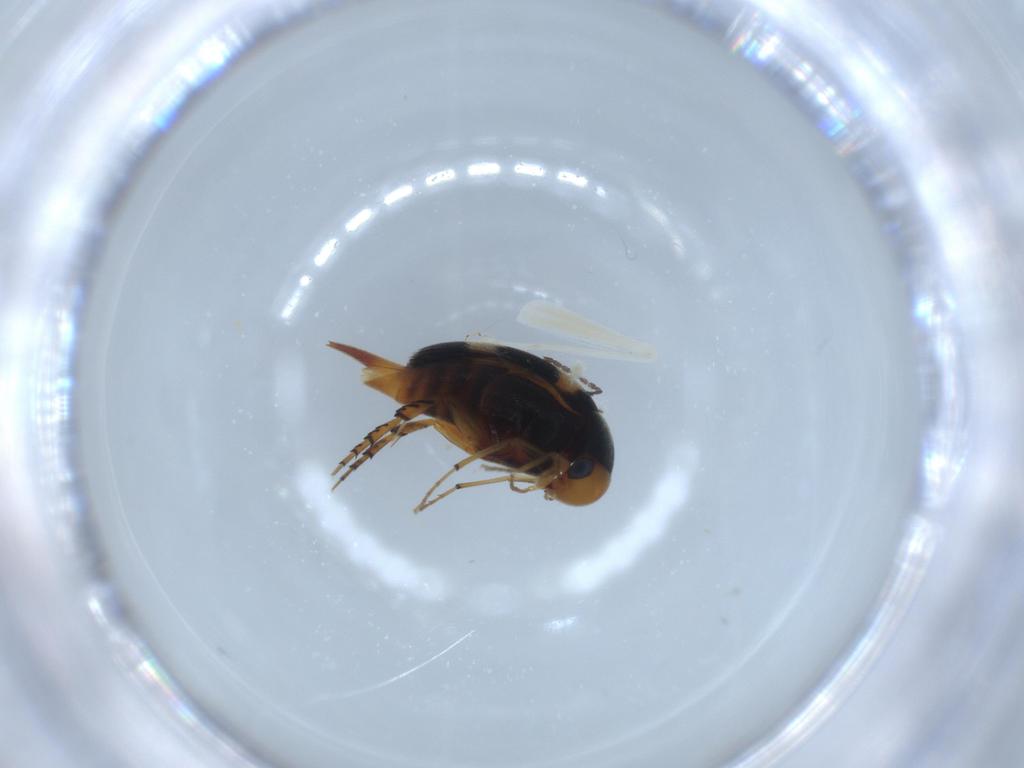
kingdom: Animalia
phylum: Arthropoda
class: Insecta
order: Coleoptera
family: Mordellidae
